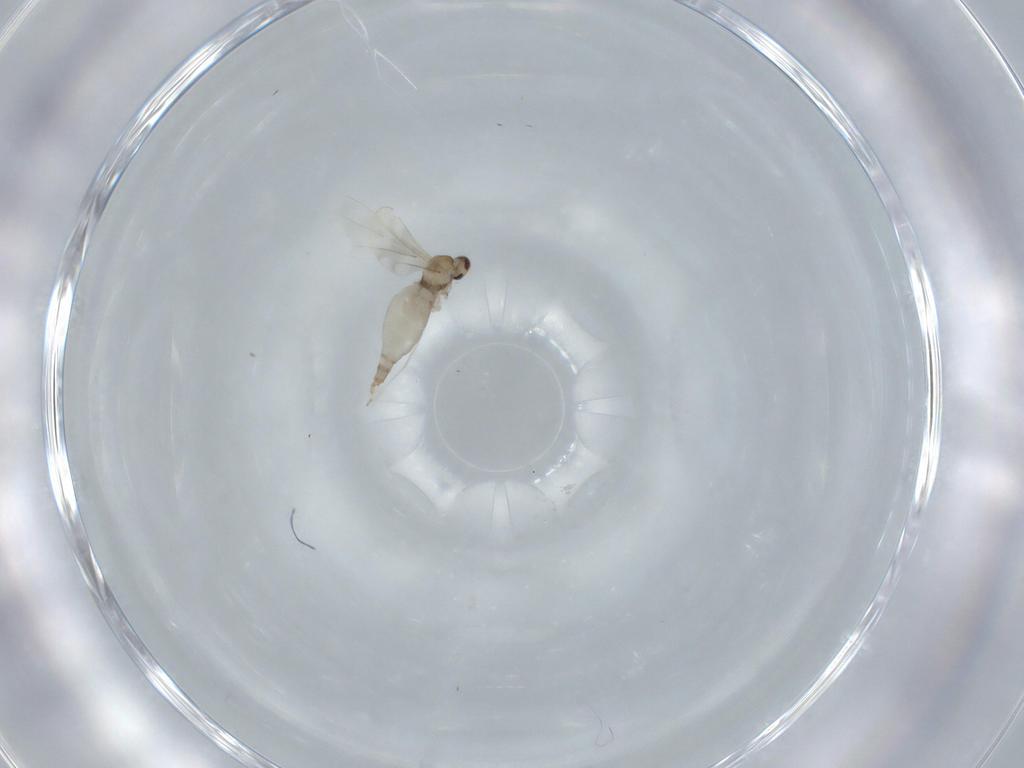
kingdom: Animalia
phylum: Arthropoda
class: Insecta
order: Diptera
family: Cecidomyiidae
